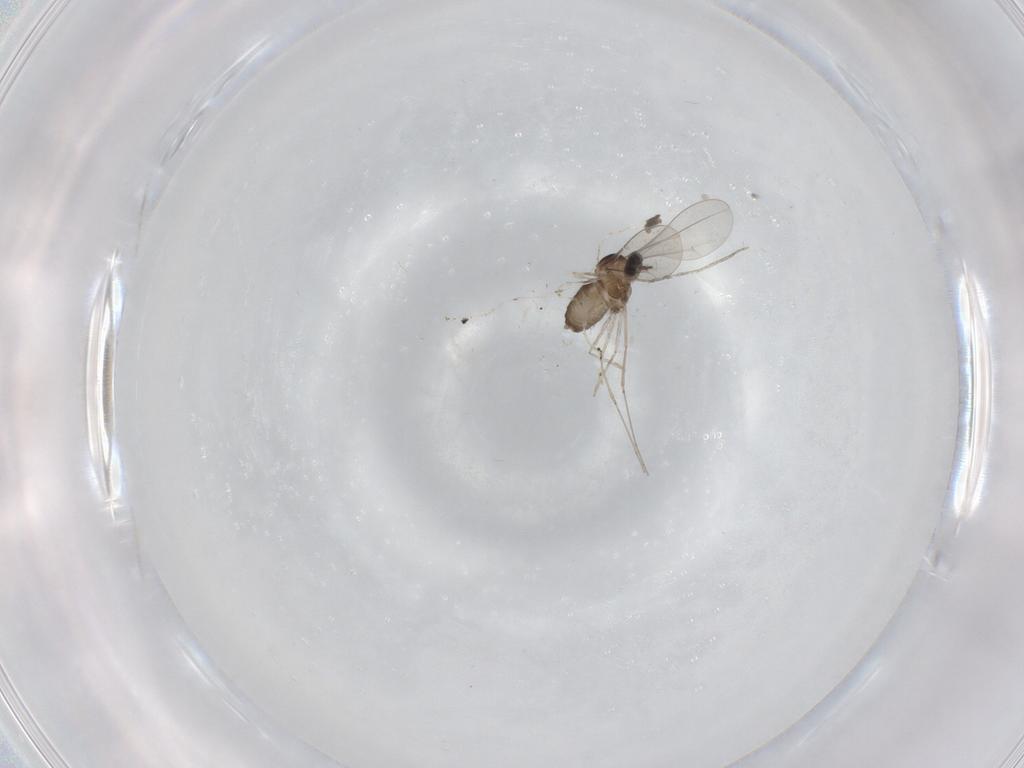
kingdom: Animalia
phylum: Arthropoda
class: Insecta
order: Diptera
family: Cecidomyiidae
